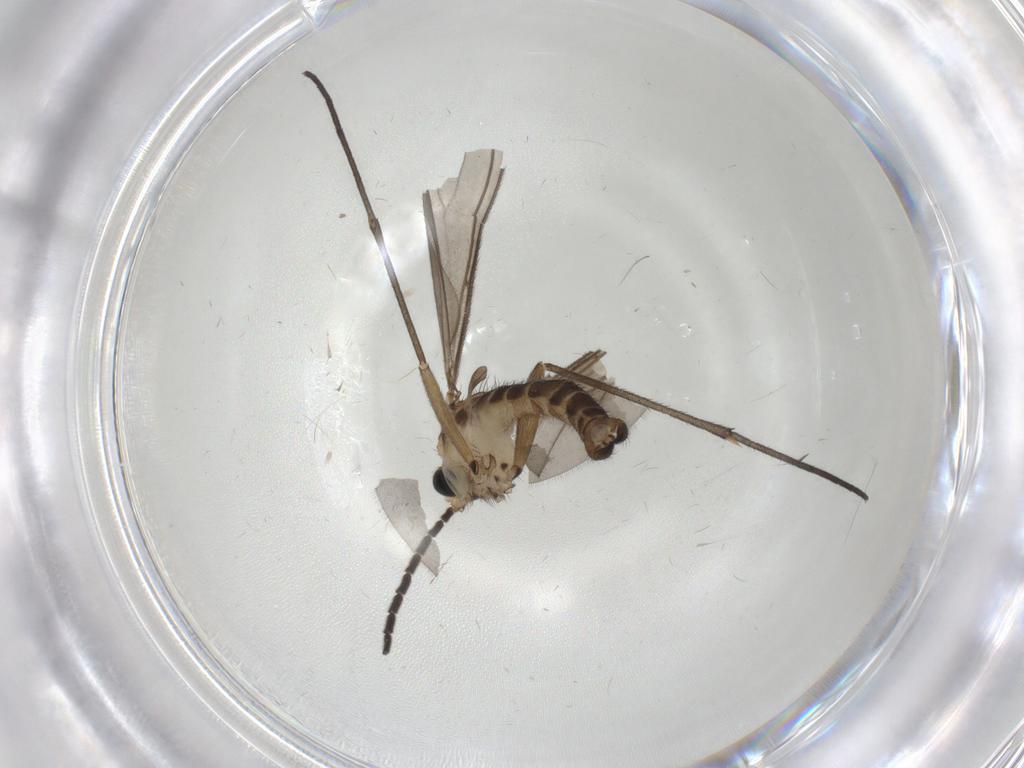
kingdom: Animalia
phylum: Arthropoda
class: Insecta
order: Diptera
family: Sciaridae
